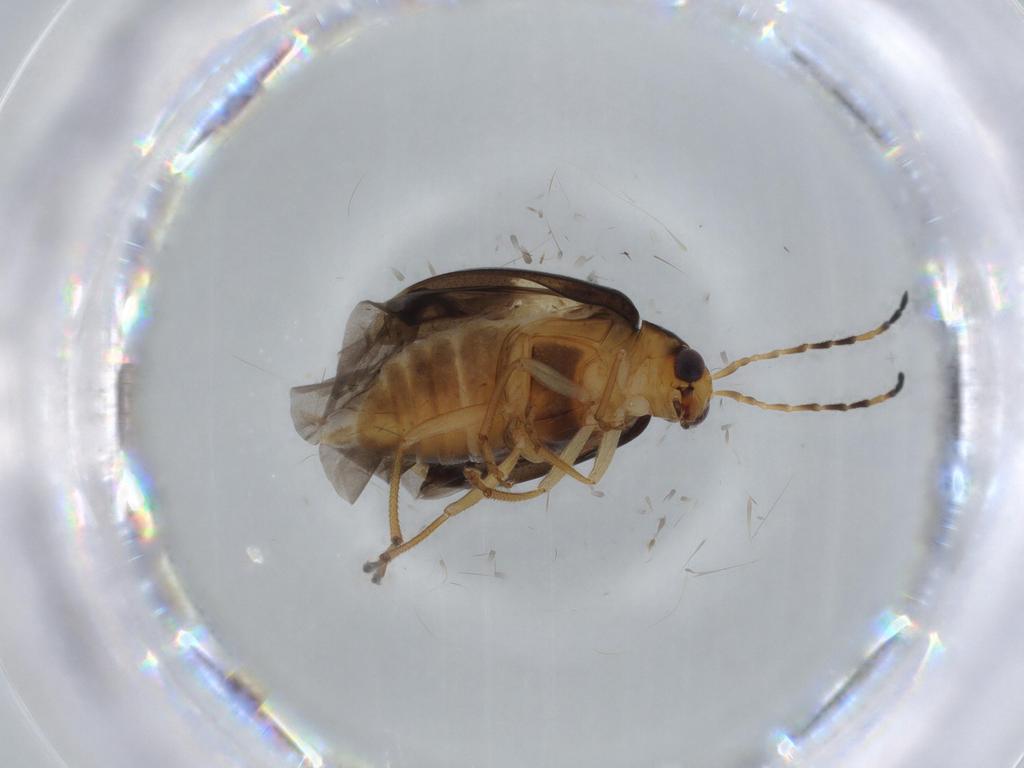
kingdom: Animalia
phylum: Arthropoda
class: Insecta
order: Coleoptera
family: Chrysomelidae
